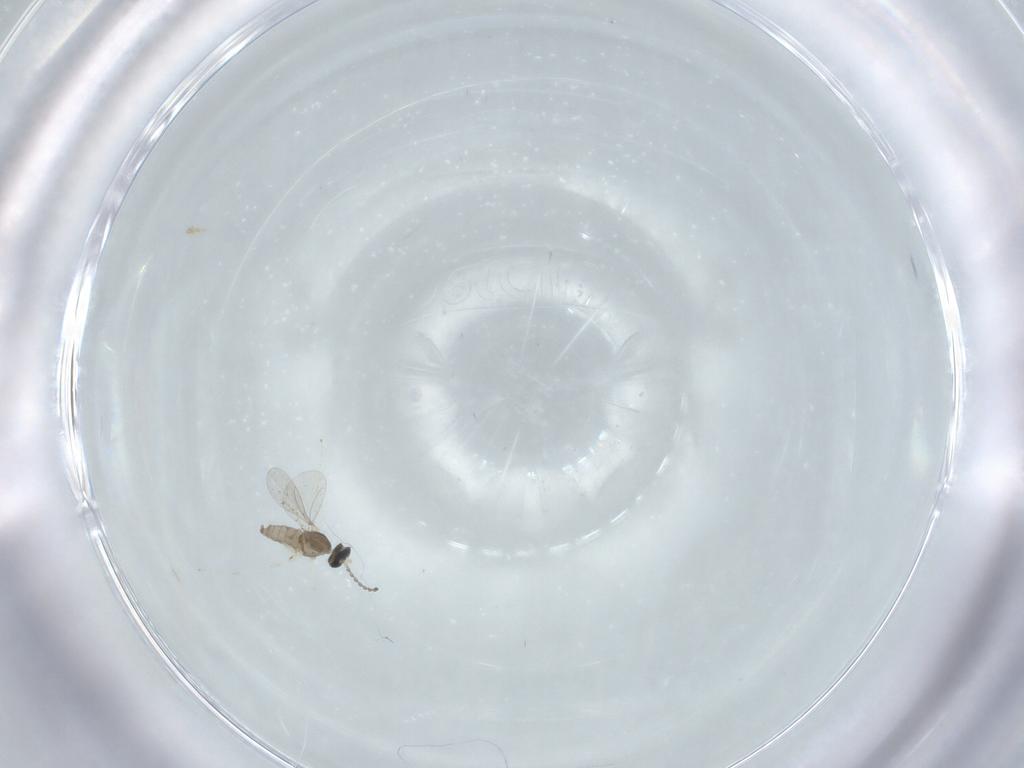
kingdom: Animalia
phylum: Arthropoda
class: Insecta
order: Diptera
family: Cecidomyiidae
